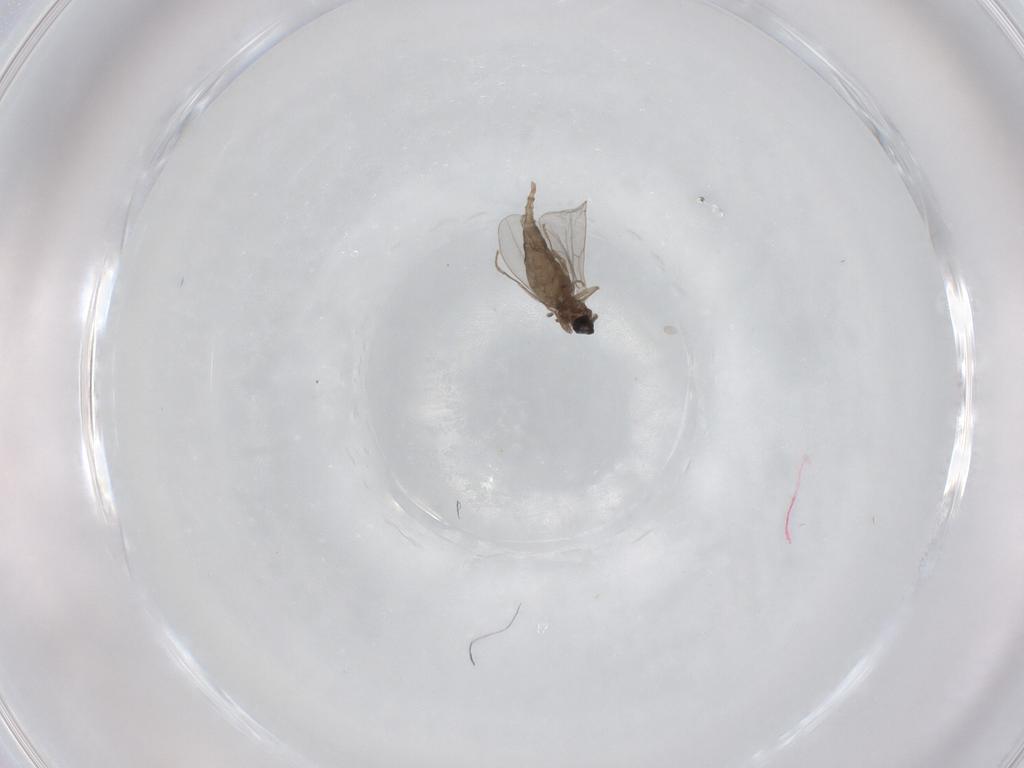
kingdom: Animalia
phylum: Arthropoda
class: Insecta
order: Diptera
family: Cecidomyiidae
